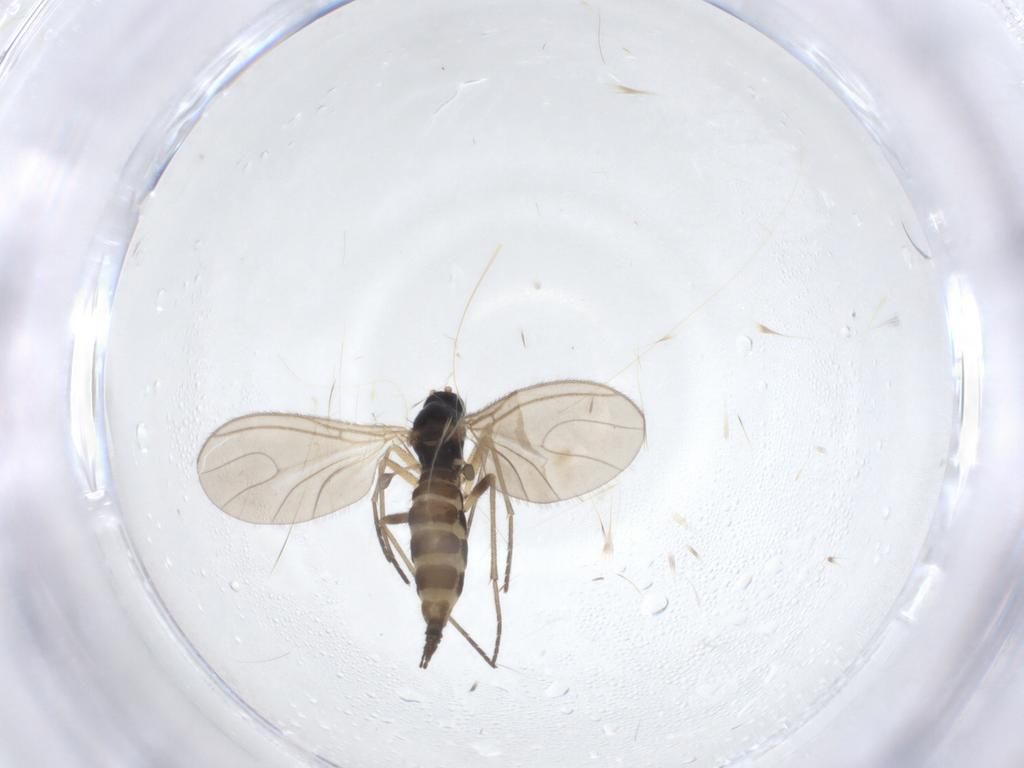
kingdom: Animalia
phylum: Arthropoda
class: Insecta
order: Diptera
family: Sciaridae
